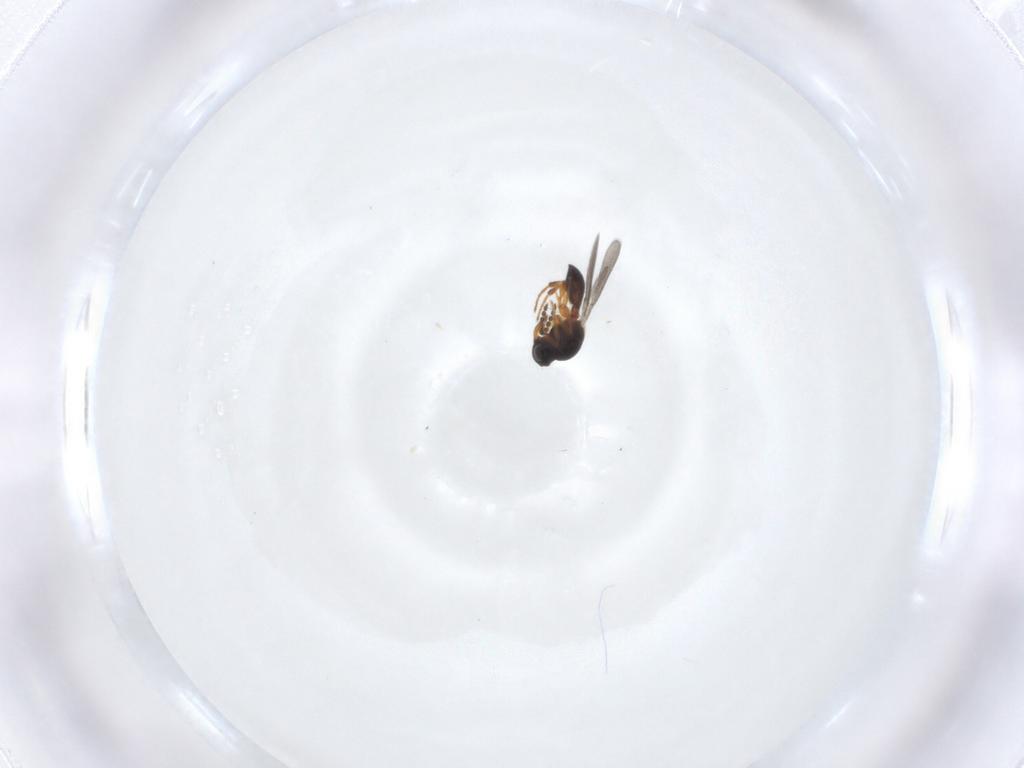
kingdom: Animalia
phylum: Arthropoda
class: Insecta
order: Hymenoptera
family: Platygastridae
